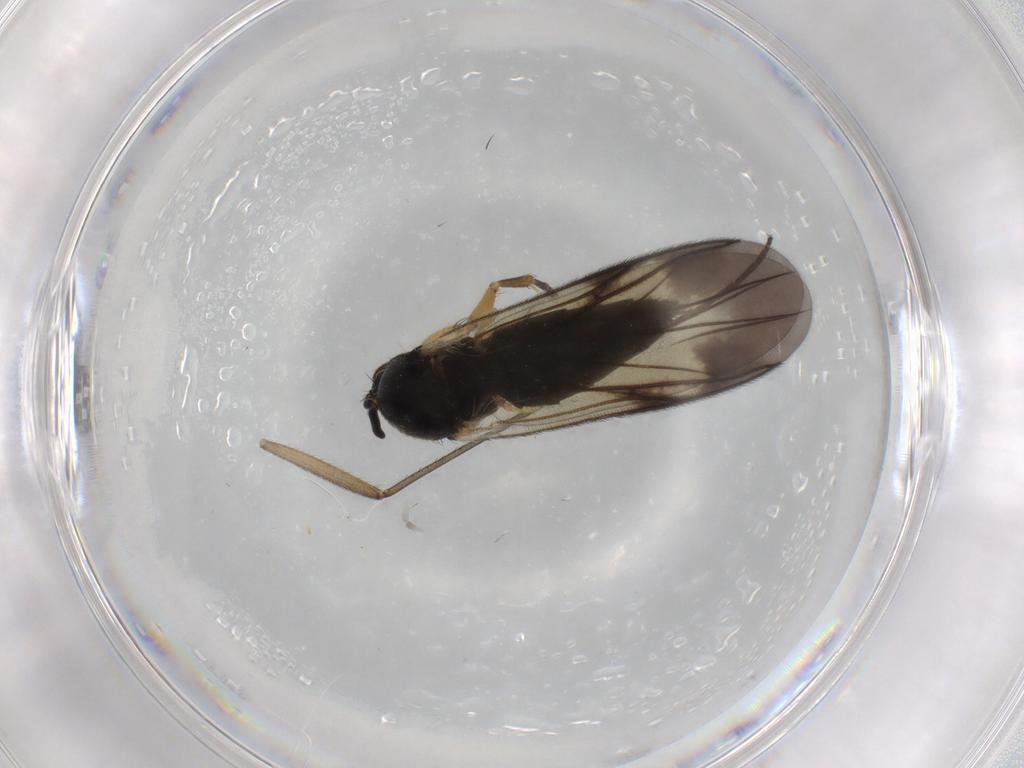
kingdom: Animalia
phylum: Arthropoda
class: Insecta
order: Diptera
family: Mycetophilidae
